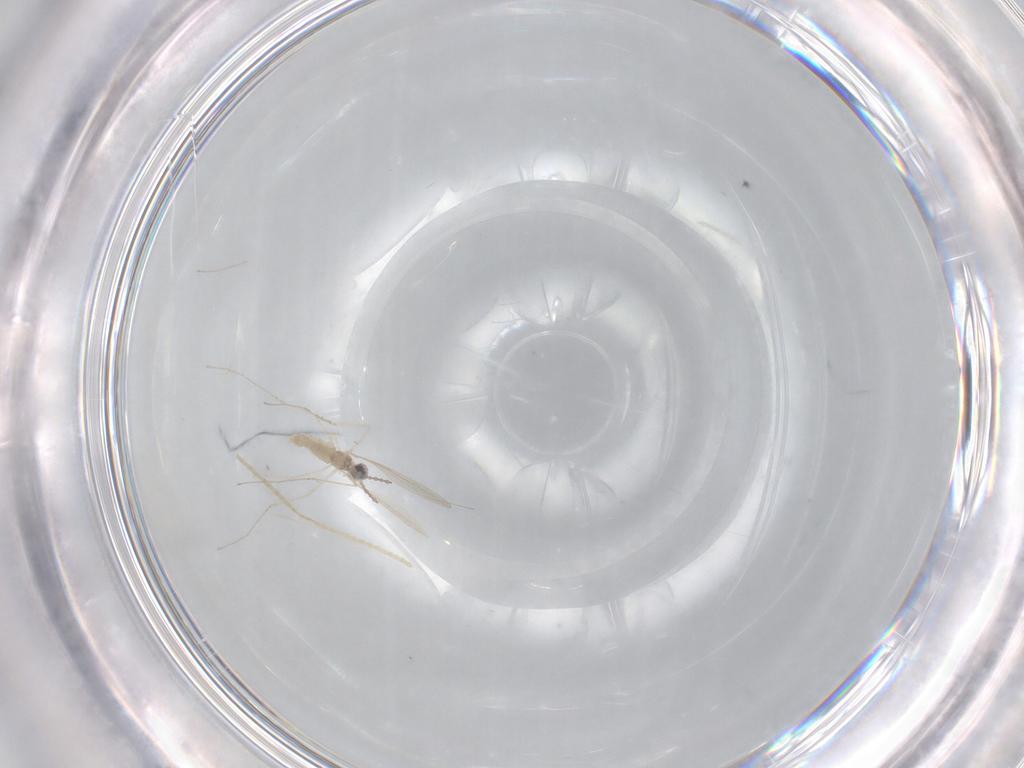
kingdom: Animalia
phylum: Arthropoda
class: Insecta
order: Diptera
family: Cecidomyiidae
